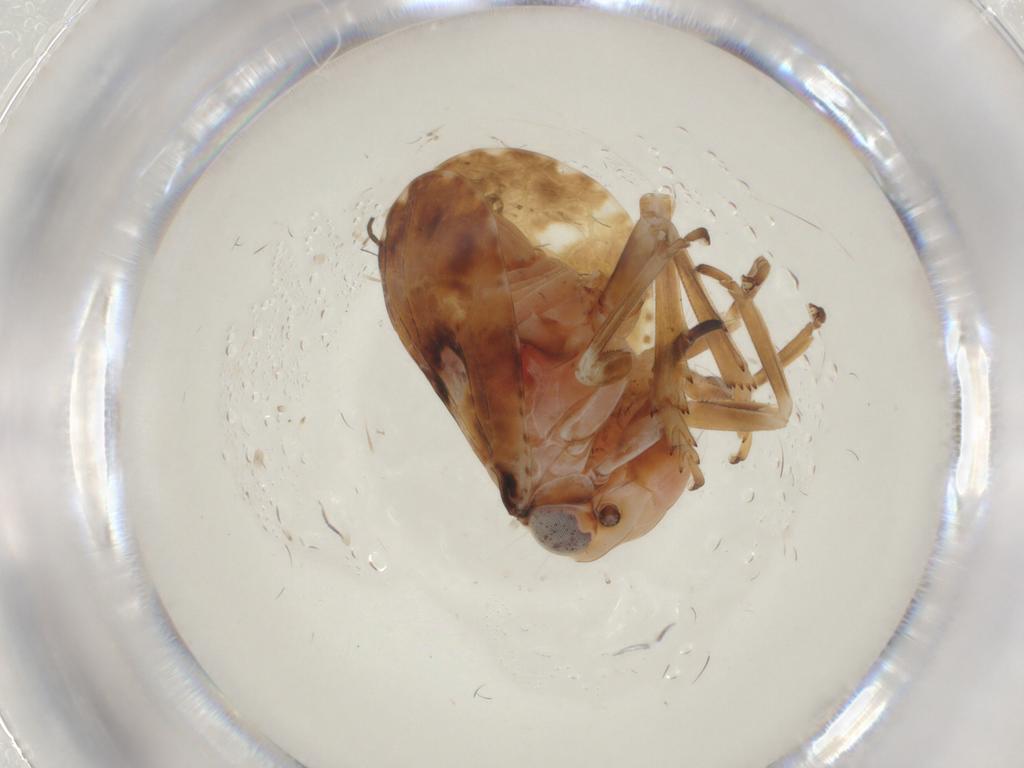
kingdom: Animalia
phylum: Arthropoda
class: Insecta
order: Hemiptera
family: Fulgoroidea_incertae_sedis
